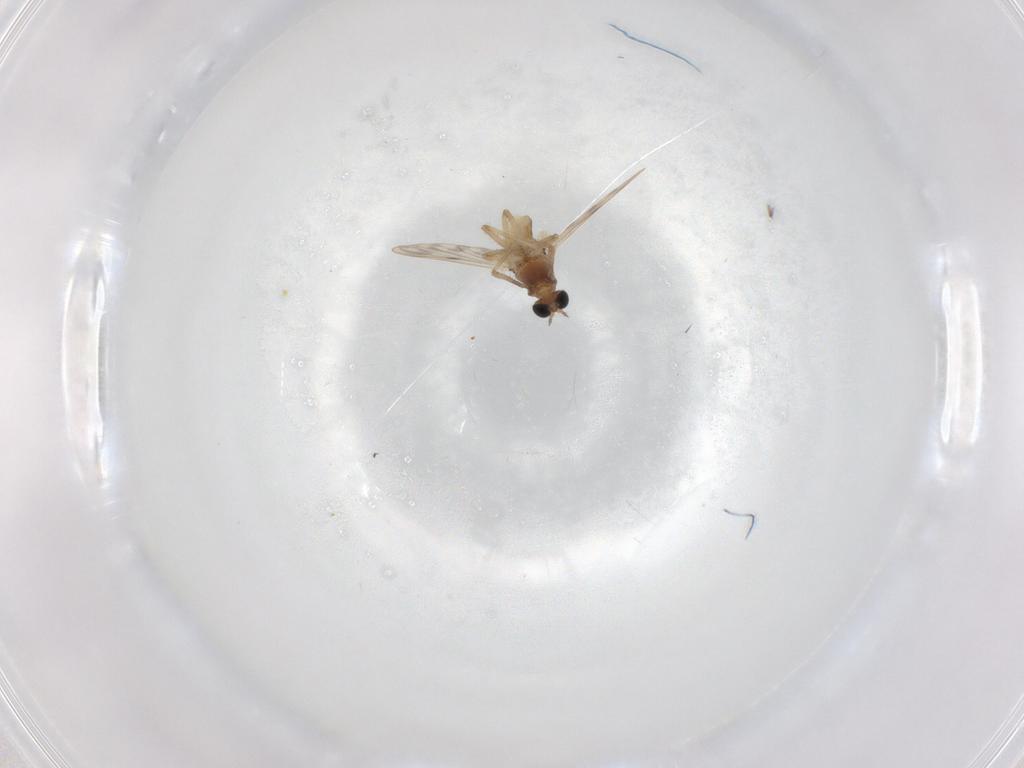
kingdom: Animalia
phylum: Arthropoda
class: Insecta
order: Diptera
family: Chironomidae
